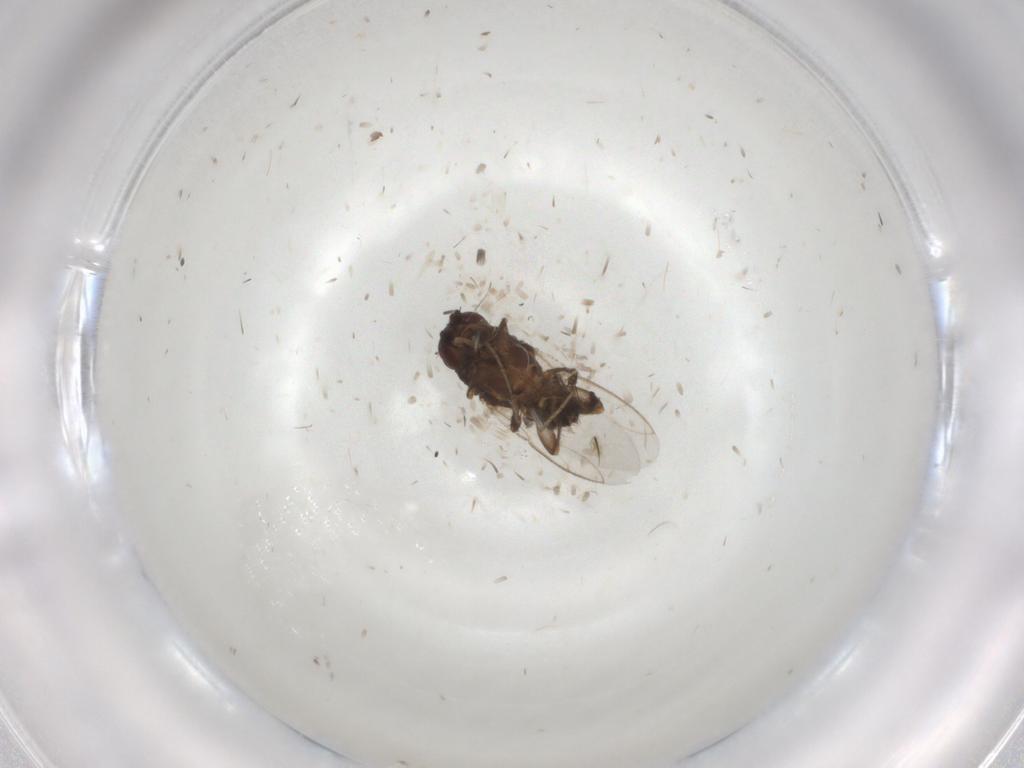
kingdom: Animalia
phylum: Arthropoda
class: Insecta
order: Diptera
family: Sphaeroceridae
